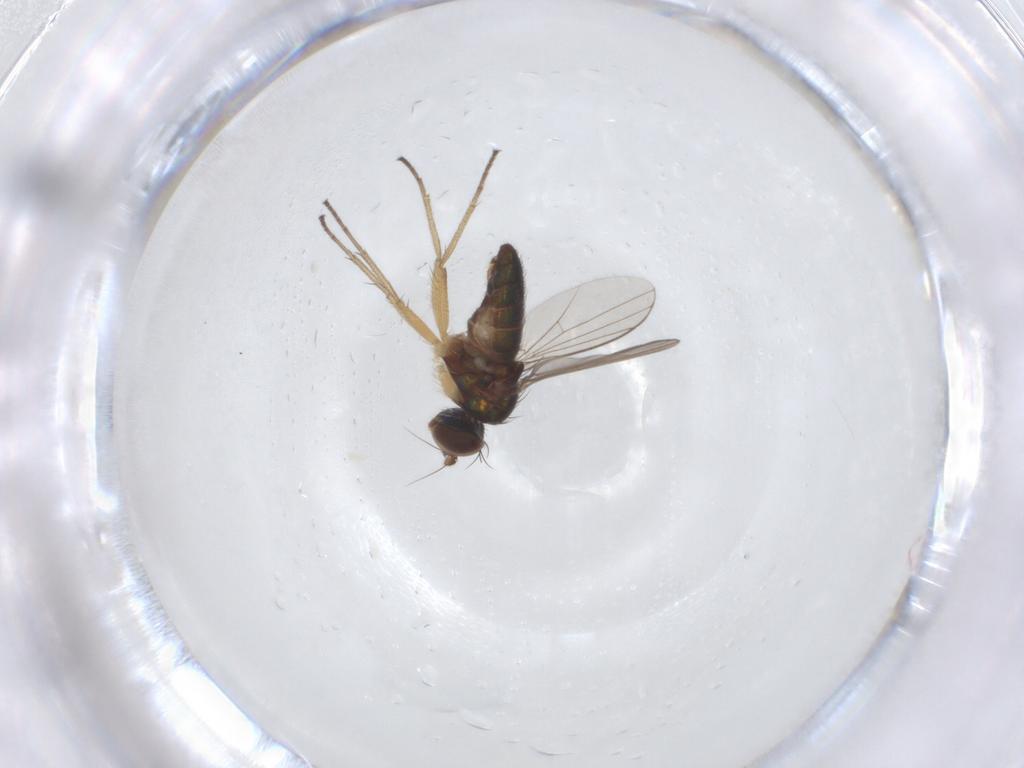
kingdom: Animalia
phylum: Arthropoda
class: Insecta
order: Diptera
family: Dolichopodidae
